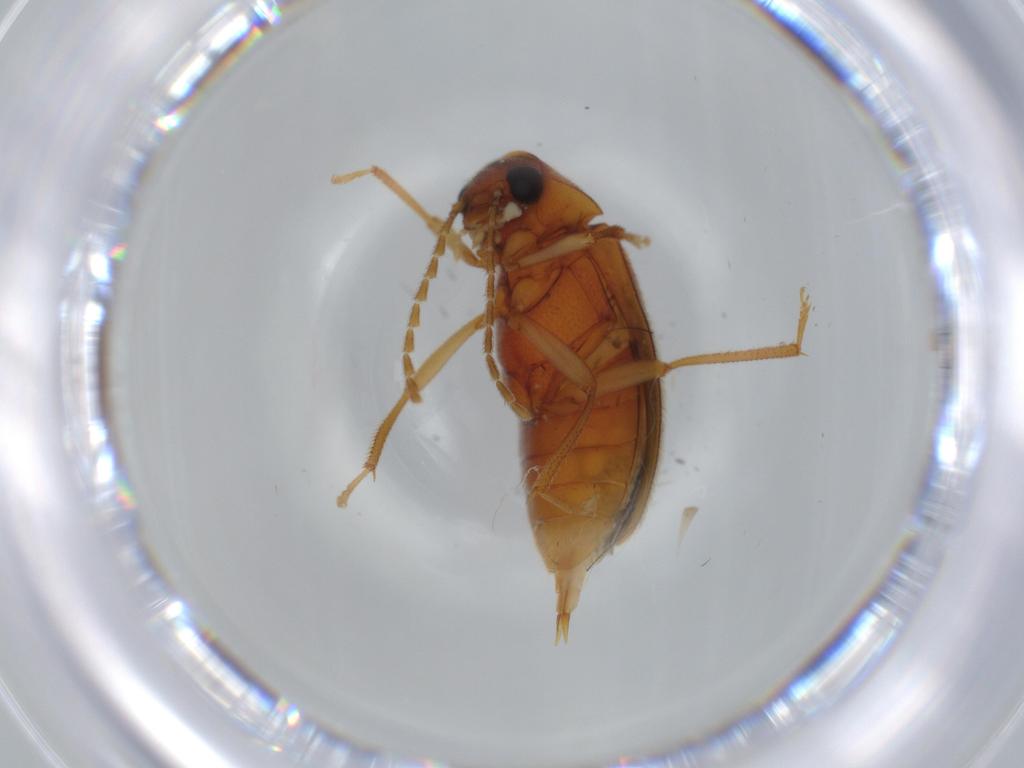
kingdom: Animalia
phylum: Arthropoda
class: Insecta
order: Coleoptera
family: Ptilodactylidae
